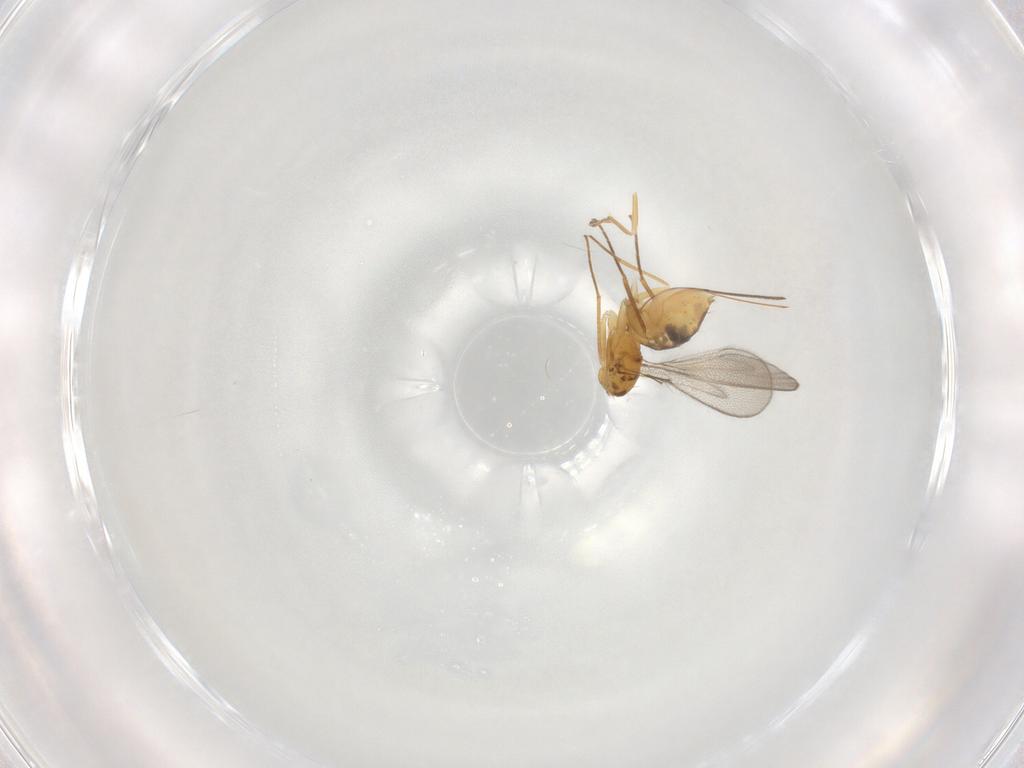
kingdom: Animalia
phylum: Arthropoda
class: Insecta
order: Hymenoptera
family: Mymaridae
